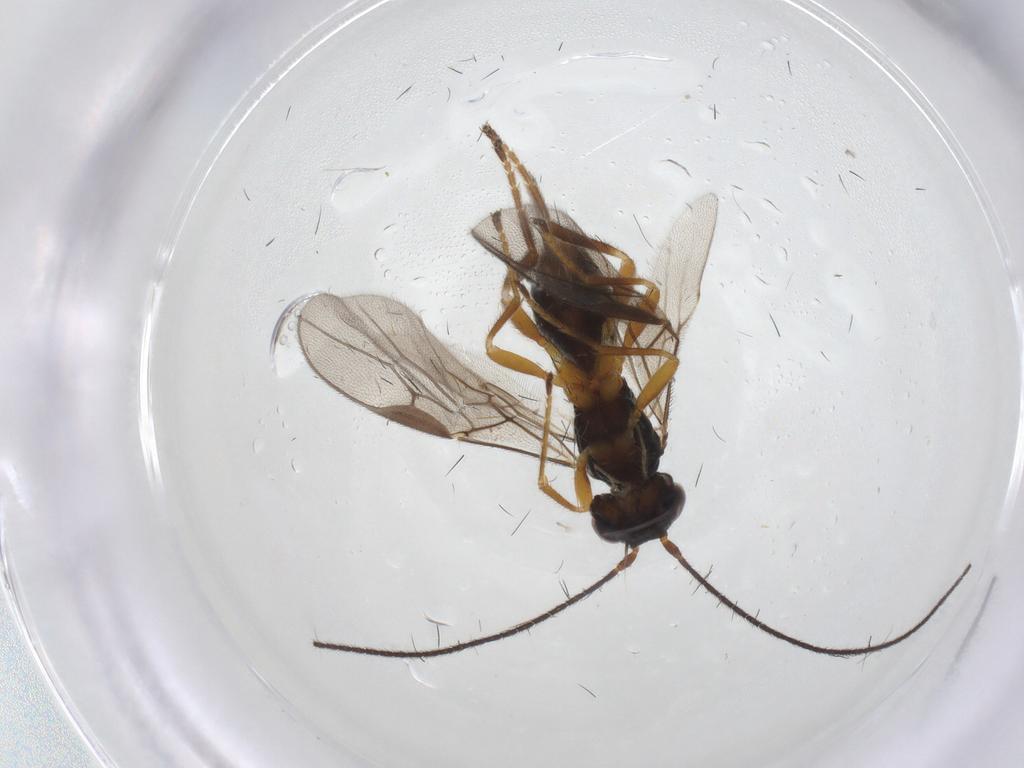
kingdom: Animalia
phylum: Arthropoda
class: Insecta
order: Hymenoptera
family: Braconidae
